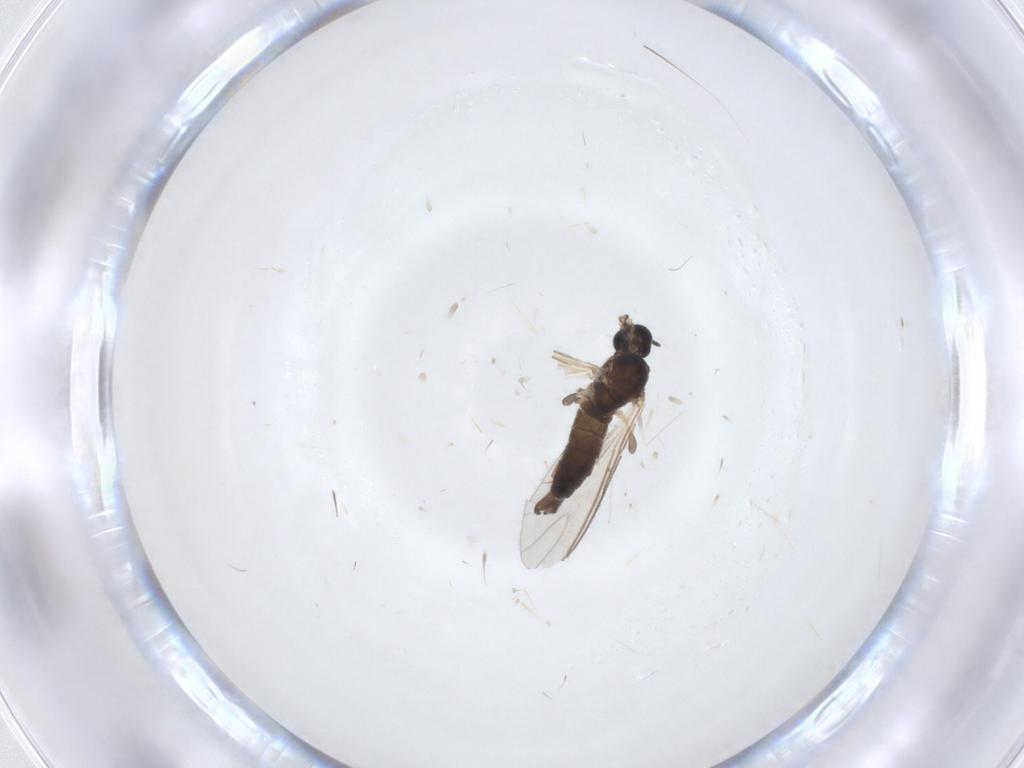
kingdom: Animalia
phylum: Arthropoda
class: Insecta
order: Diptera
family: Sciaridae
